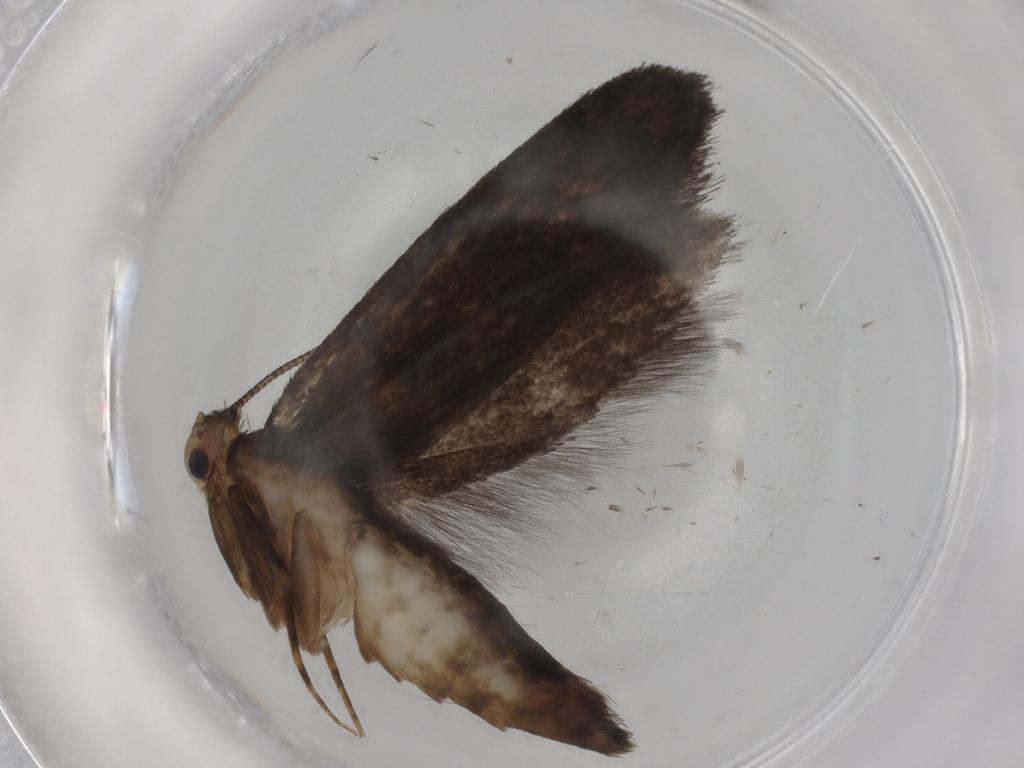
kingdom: Animalia
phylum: Arthropoda
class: Insecta
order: Lepidoptera
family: Tineidae
